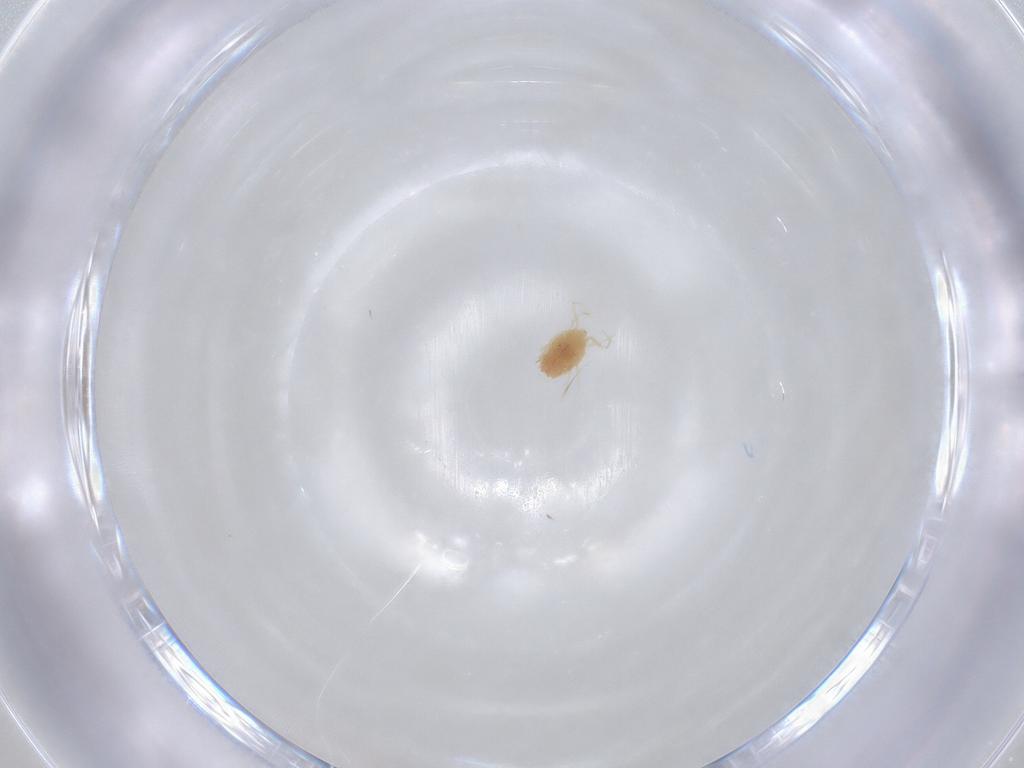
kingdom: Animalia
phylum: Arthropoda
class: Arachnida
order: Trombidiformes
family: Tetranychidae
